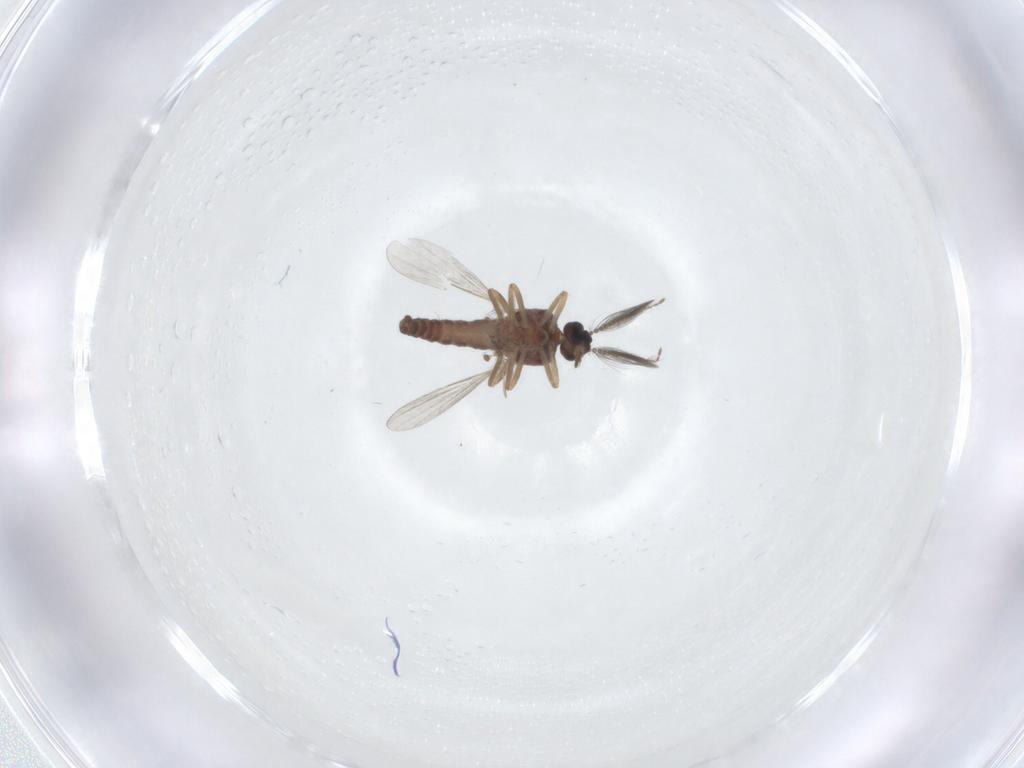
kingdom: Animalia
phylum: Arthropoda
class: Insecta
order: Diptera
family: Ceratopogonidae
